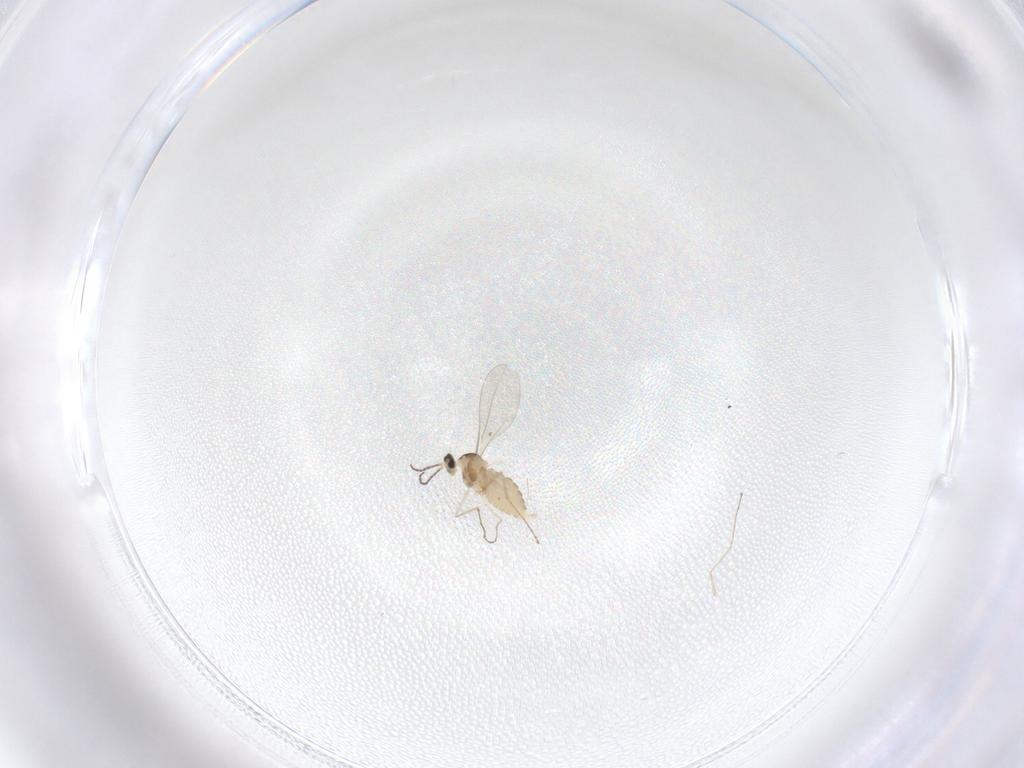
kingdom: Animalia
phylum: Arthropoda
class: Insecta
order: Diptera
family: Cecidomyiidae
